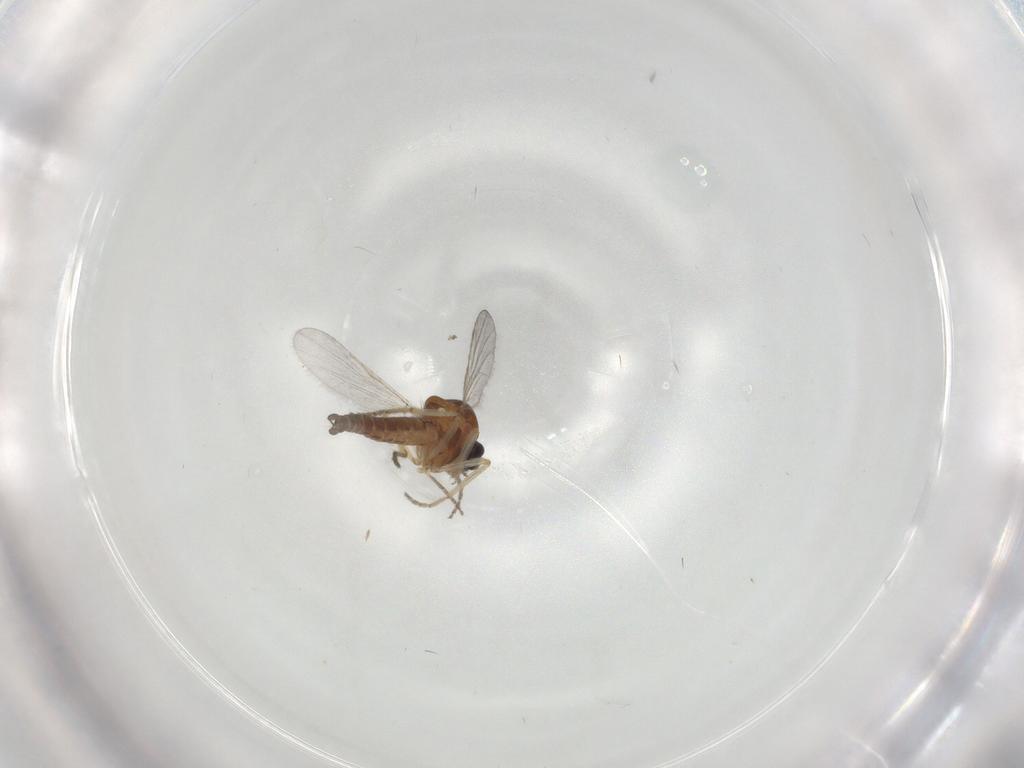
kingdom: Animalia
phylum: Arthropoda
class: Insecta
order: Diptera
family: Ceratopogonidae
